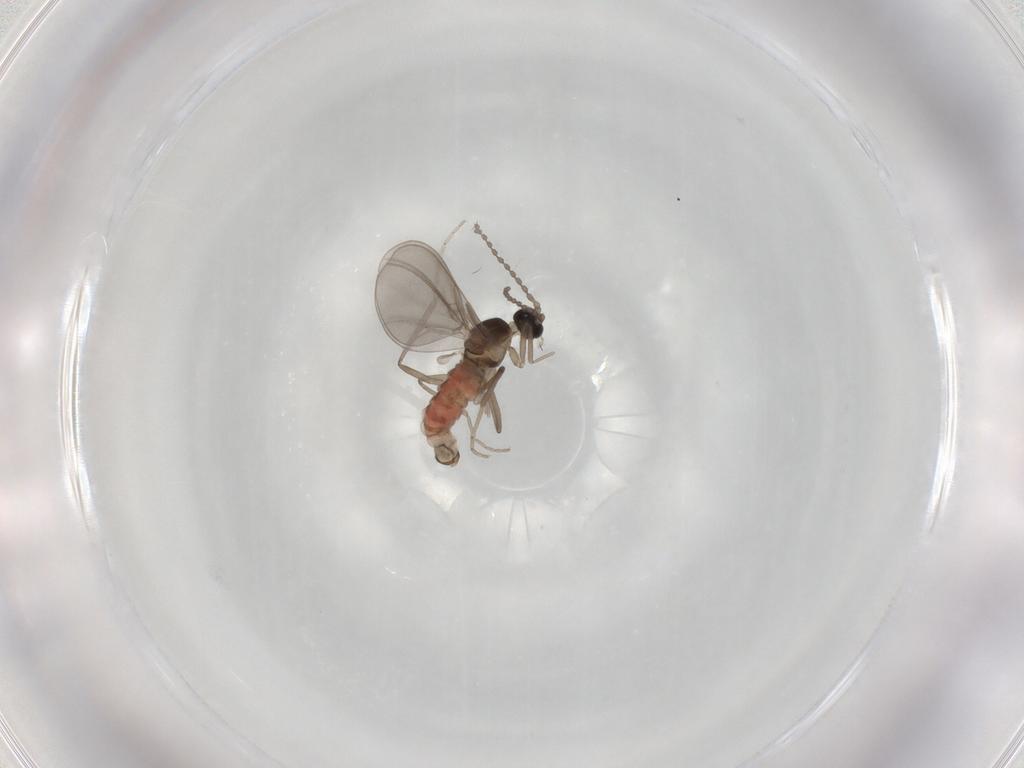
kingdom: Animalia
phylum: Arthropoda
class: Insecta
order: Diptera
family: Cecidomyiidae
